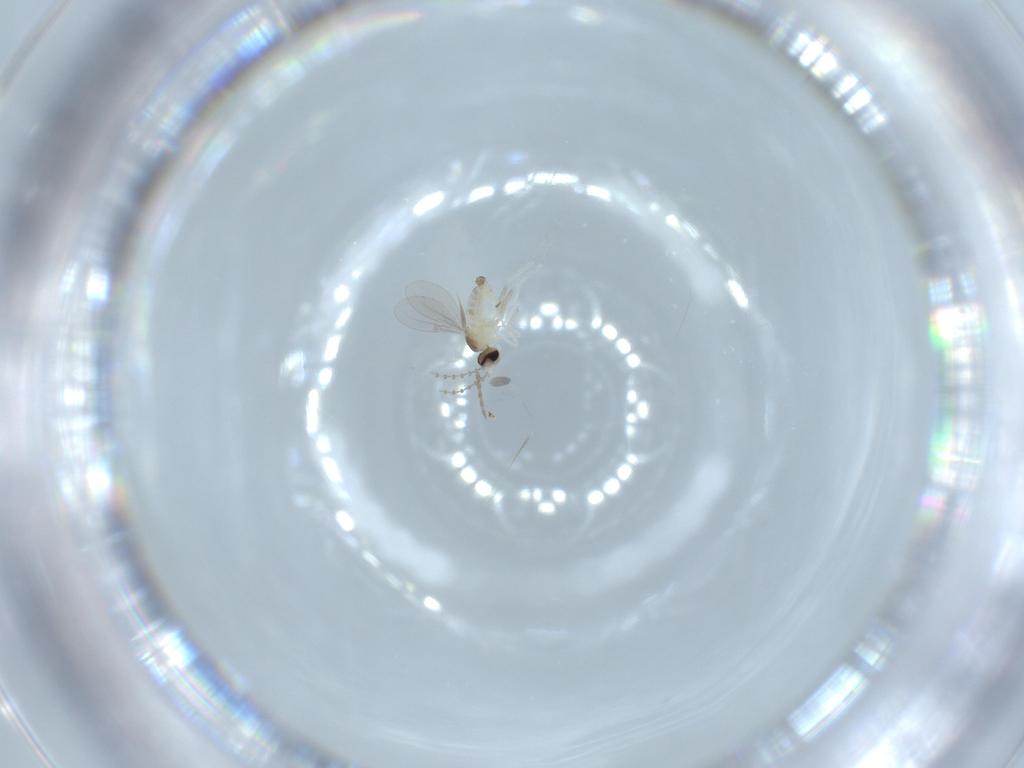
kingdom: Animalia
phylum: Arthropoda
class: Insecta
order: Diptera
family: Cecidomyiidae
